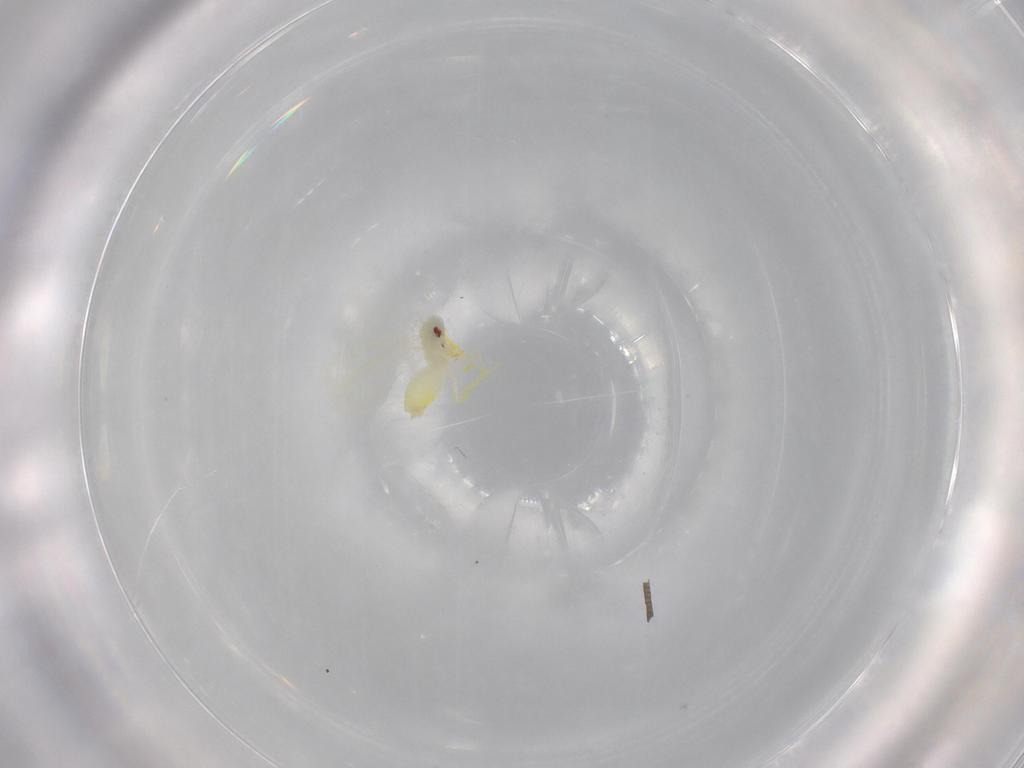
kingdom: Animalia
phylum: Arthropoda
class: Insecta
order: Hemiptera
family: Aleyrodidae
